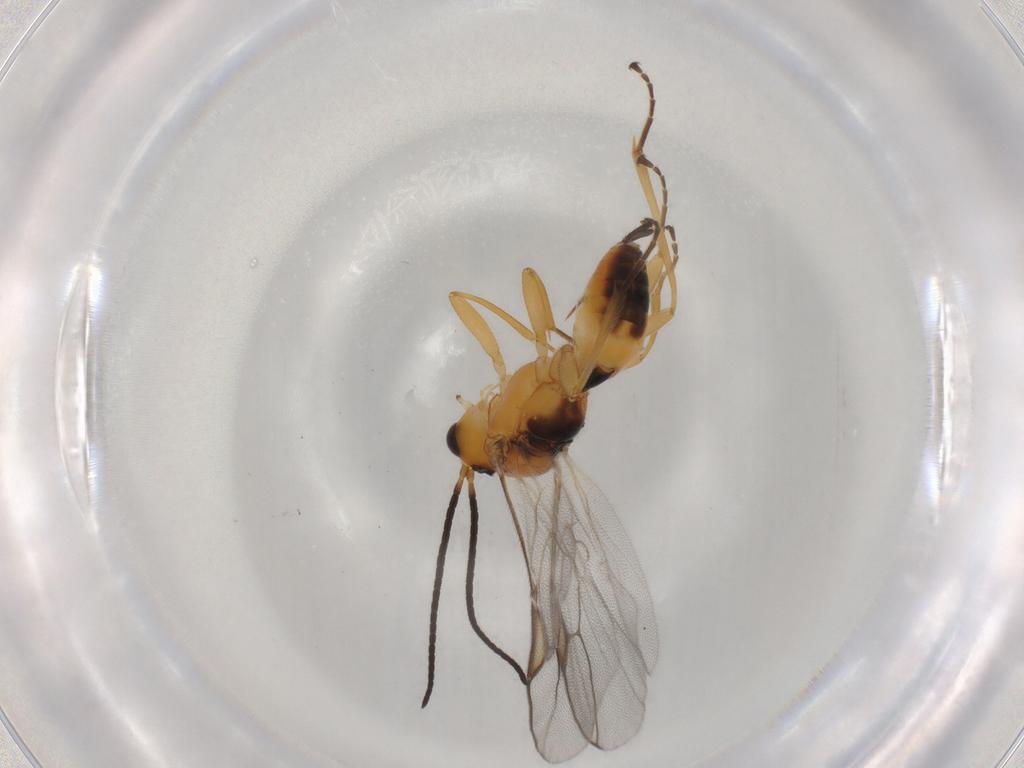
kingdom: Animalia
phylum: Arthropoda
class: Insecta
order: Hymenoptera
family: Braconidae
